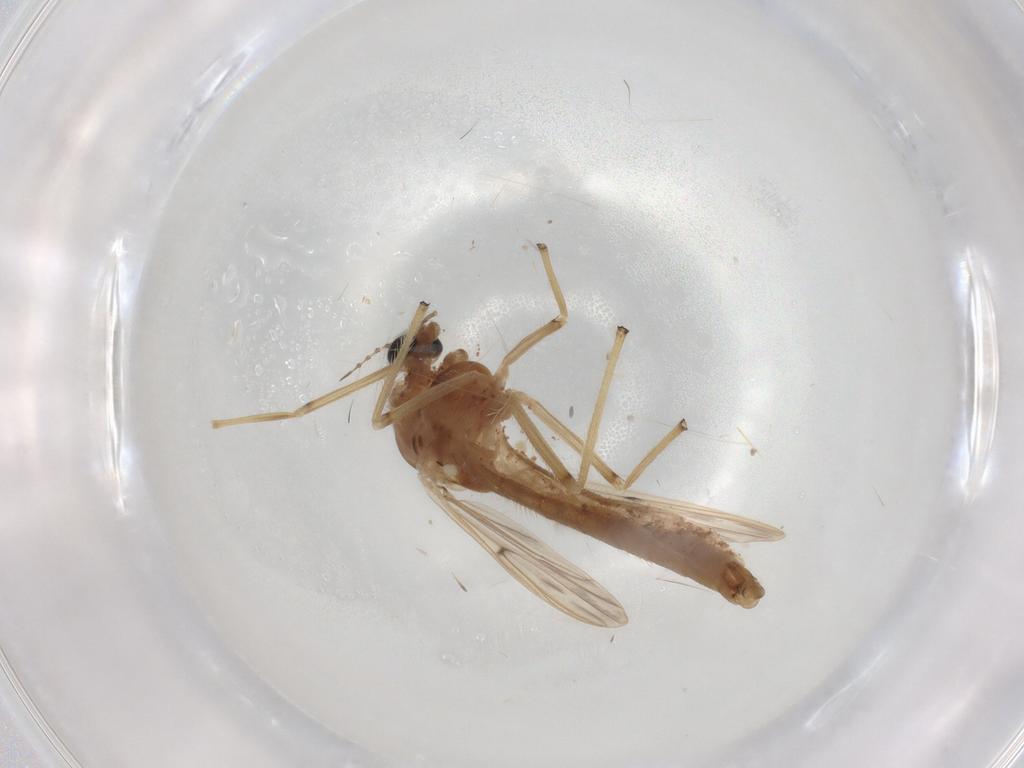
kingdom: Animalia
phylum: Arthropoda
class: Insecta
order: Diptera
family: Chironomidae
